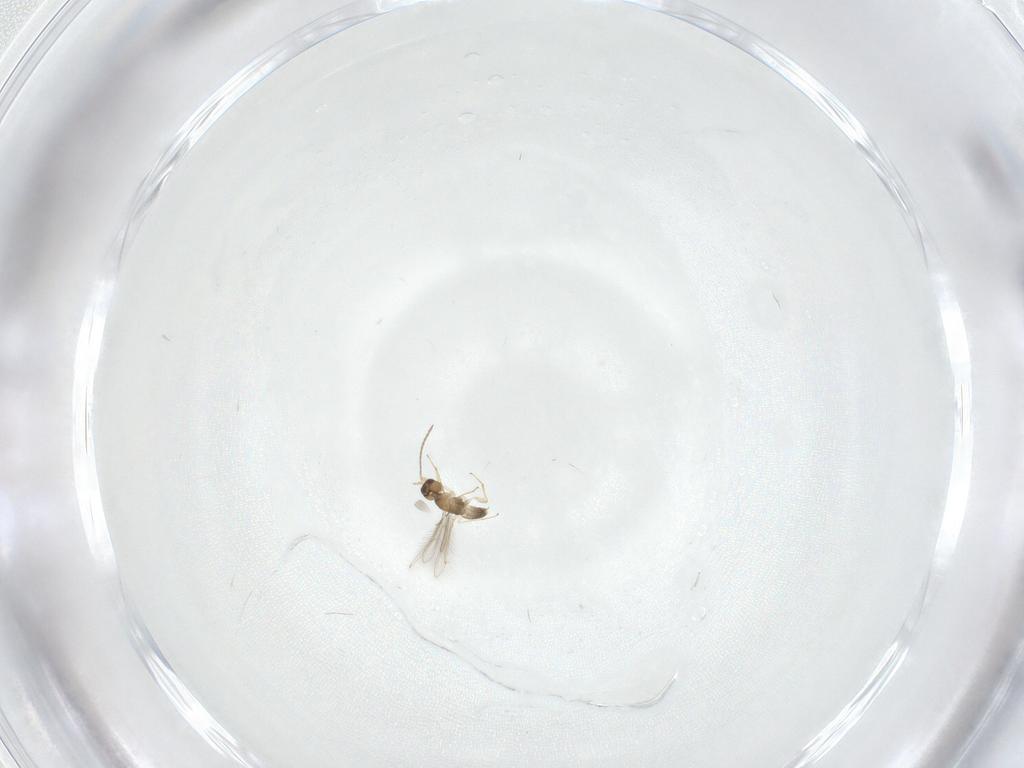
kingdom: Animalia
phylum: Arthropoda
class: Insecta
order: Hymenoptera
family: Mymaridae
